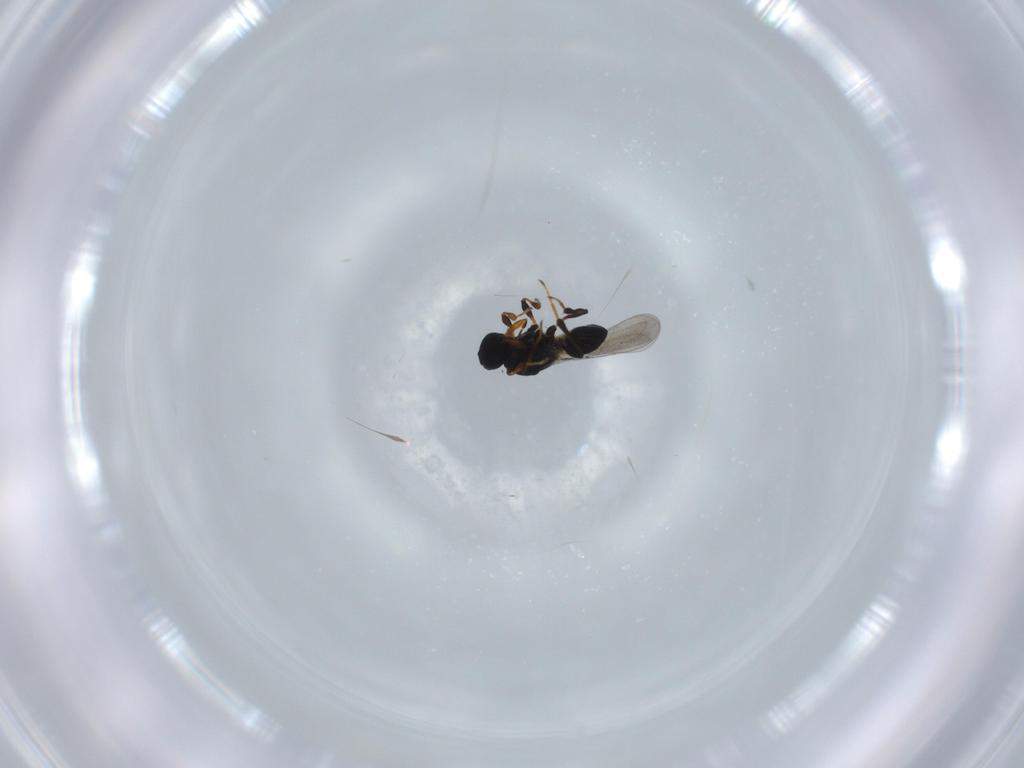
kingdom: Animalia
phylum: Arthropoda
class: Insecta
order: Hymenoptera
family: Platygastridae
